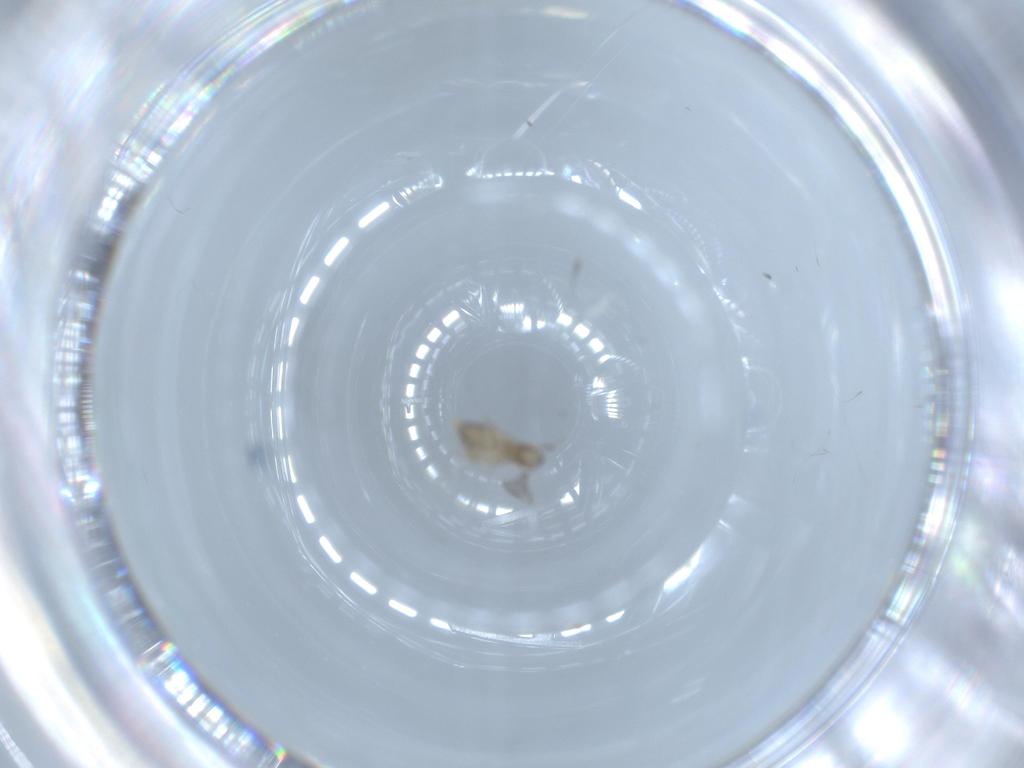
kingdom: Animalia
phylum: Arthropoda
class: Insecta
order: Diptera
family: Cecidomyiidae
